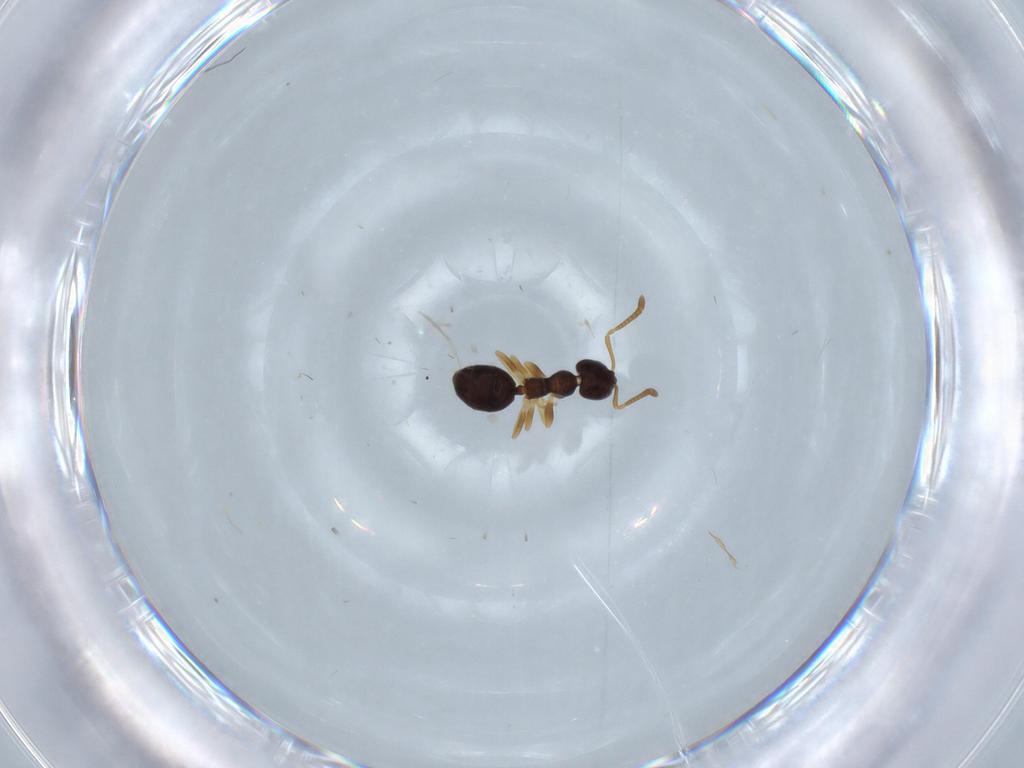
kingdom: Animalia
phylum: Arthropoda
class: Insecta
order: Hymenoptera
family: Formicidae
